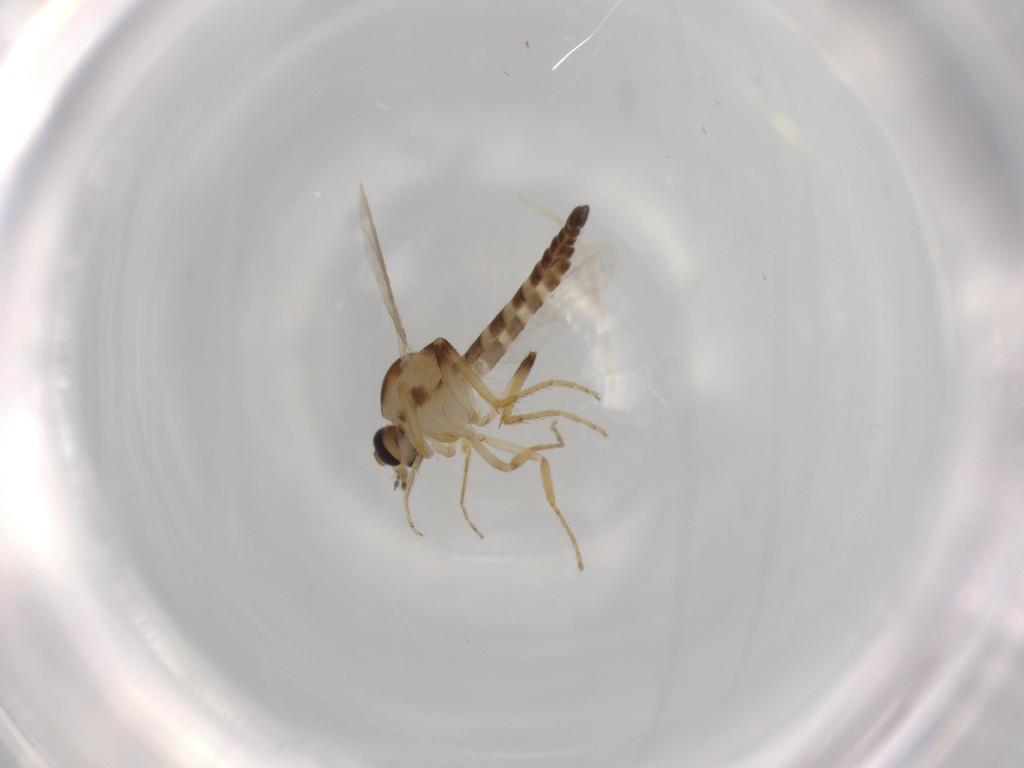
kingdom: Animalia
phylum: Arthropoda
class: Insecta
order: Diptera
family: Ceratopogonidae
